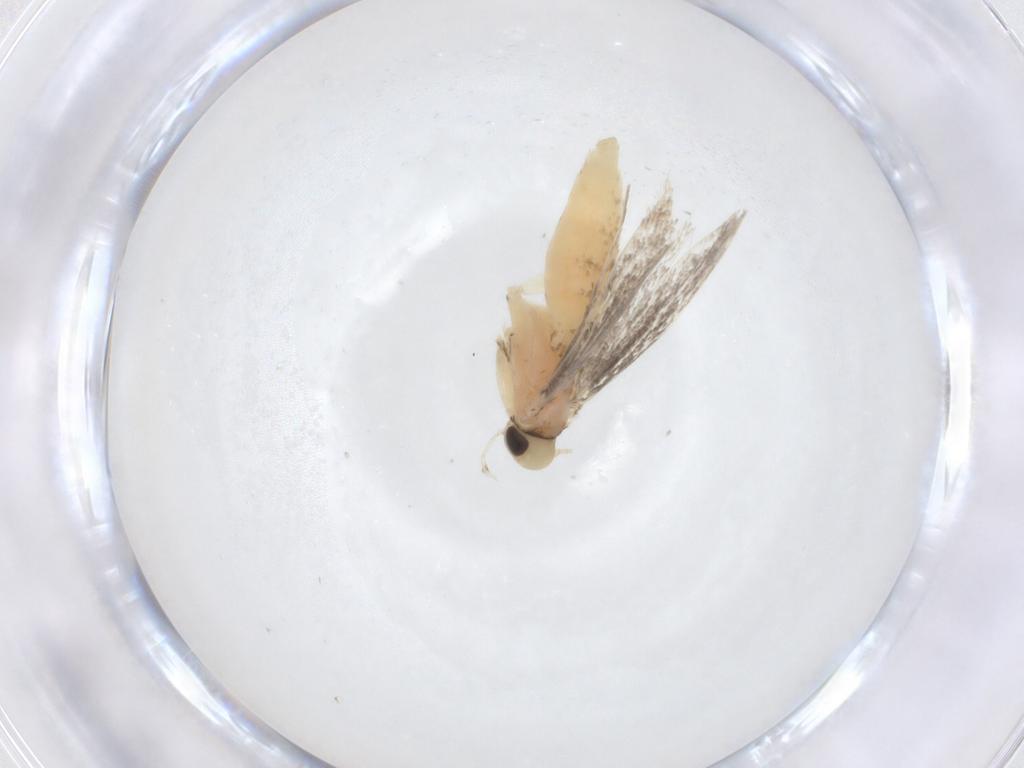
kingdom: Animalia
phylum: Arthropoda
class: Insecta
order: Lepidoptera
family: Gracillariidae
